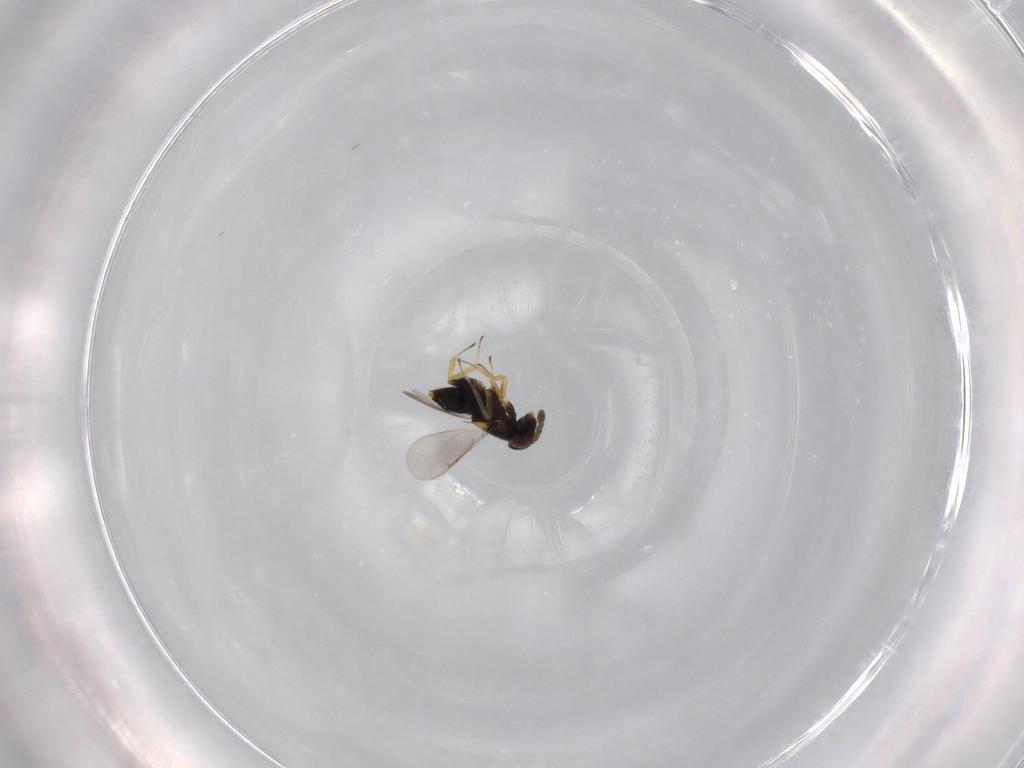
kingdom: Animalia
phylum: Arthropoda
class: Insecta
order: Hymenoptera
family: Aphelinidae
